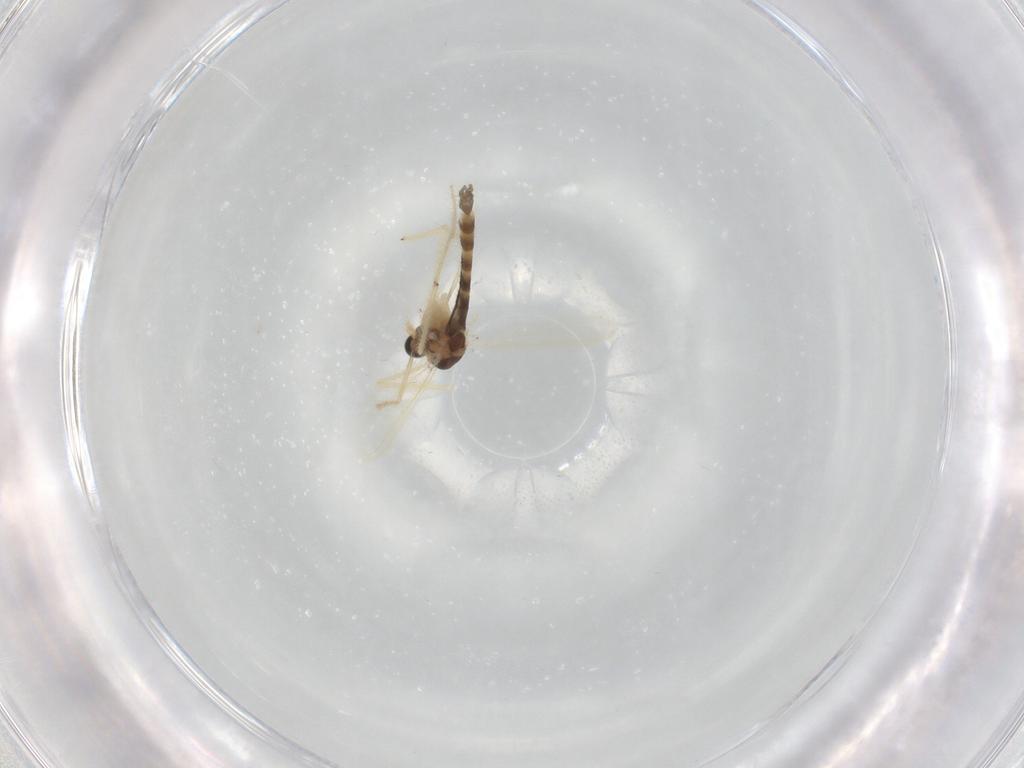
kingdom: Animalia
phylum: Arthropoda
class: Insecta
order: Diptera
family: Chironomidae
